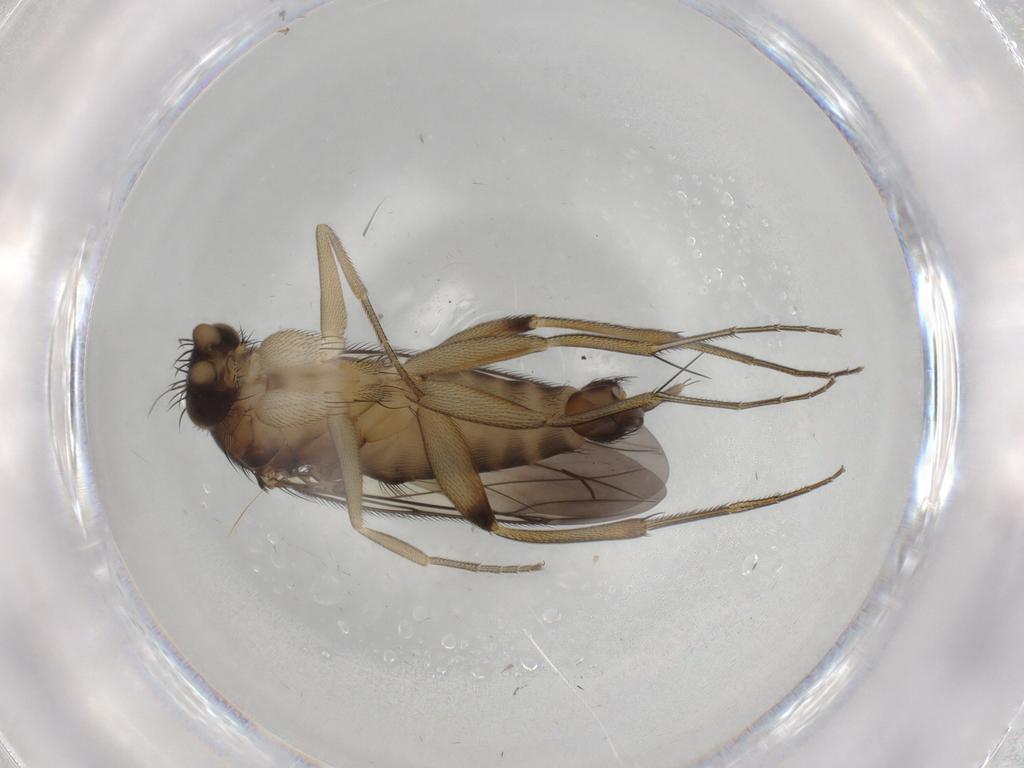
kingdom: Animalia
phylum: Arthropoda
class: Insecta
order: Diptera
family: Phoridae
